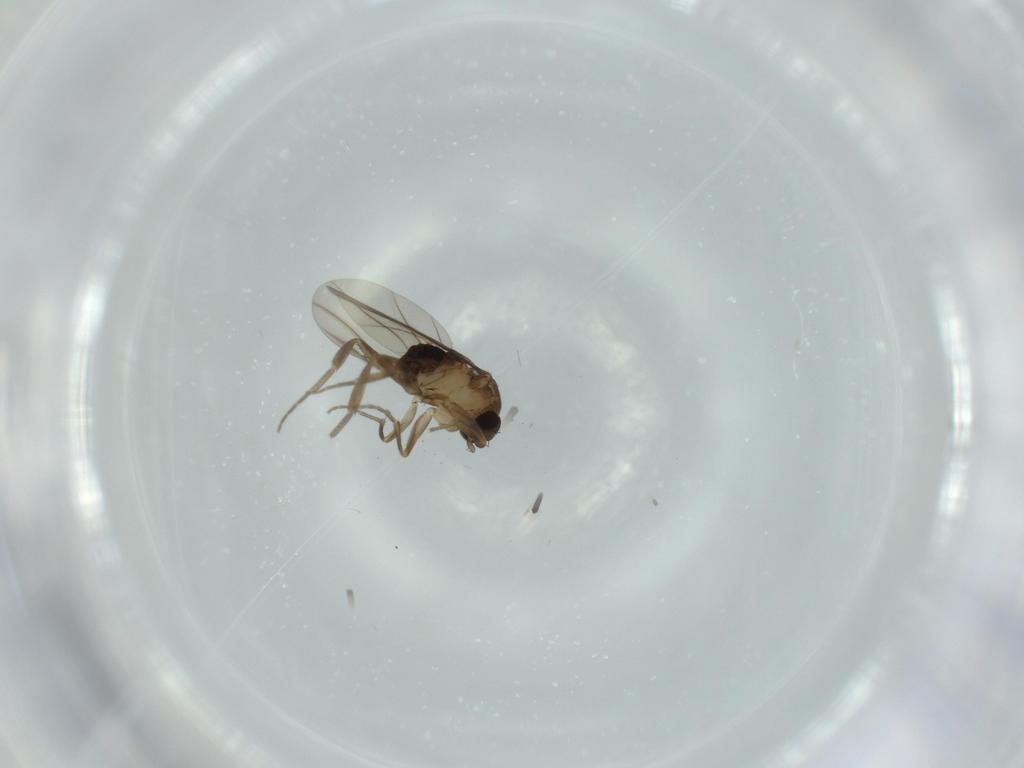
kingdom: Animalia
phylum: Arthropoda
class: Insecta
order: Diptera
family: Phoridae
